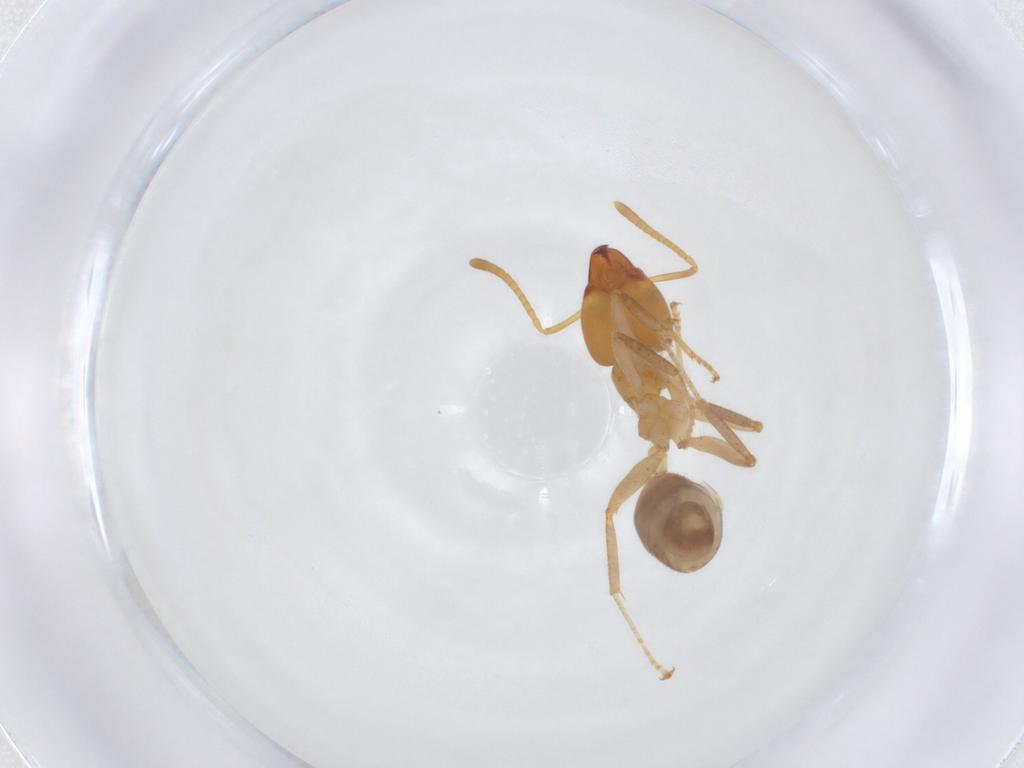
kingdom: Animalia
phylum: Arthropoda
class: Insecta
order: Hymenoptera
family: Formicidae
